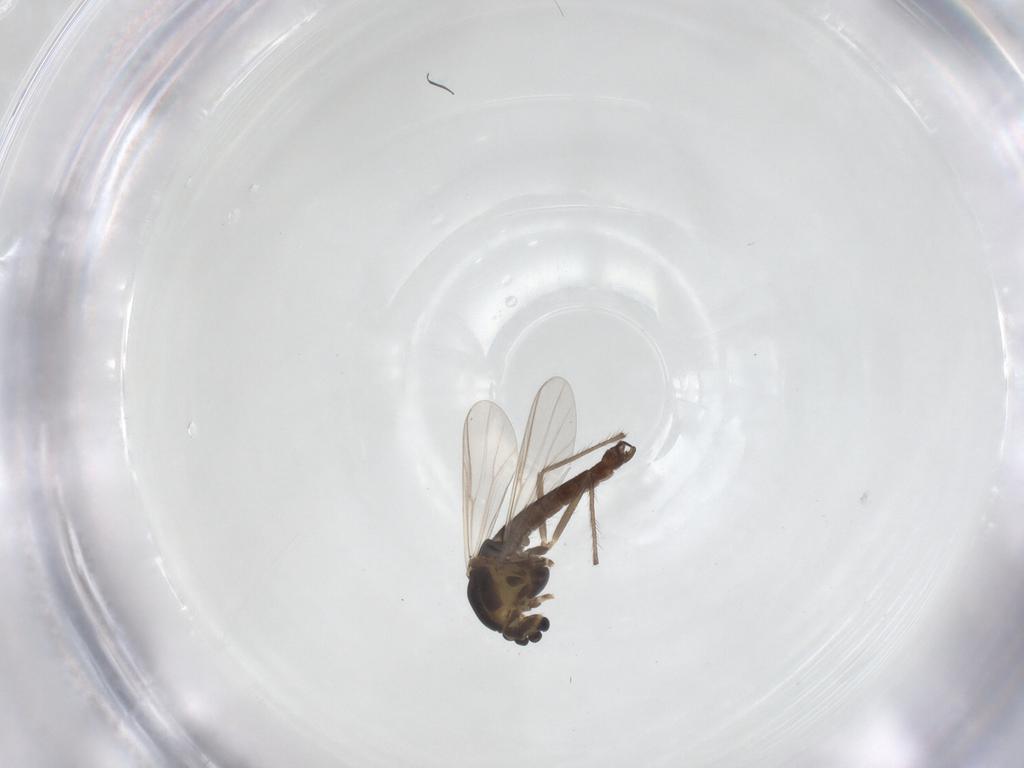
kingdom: Animalia
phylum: Arthropoda
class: Insecta
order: Diptera
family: Chironomidae
